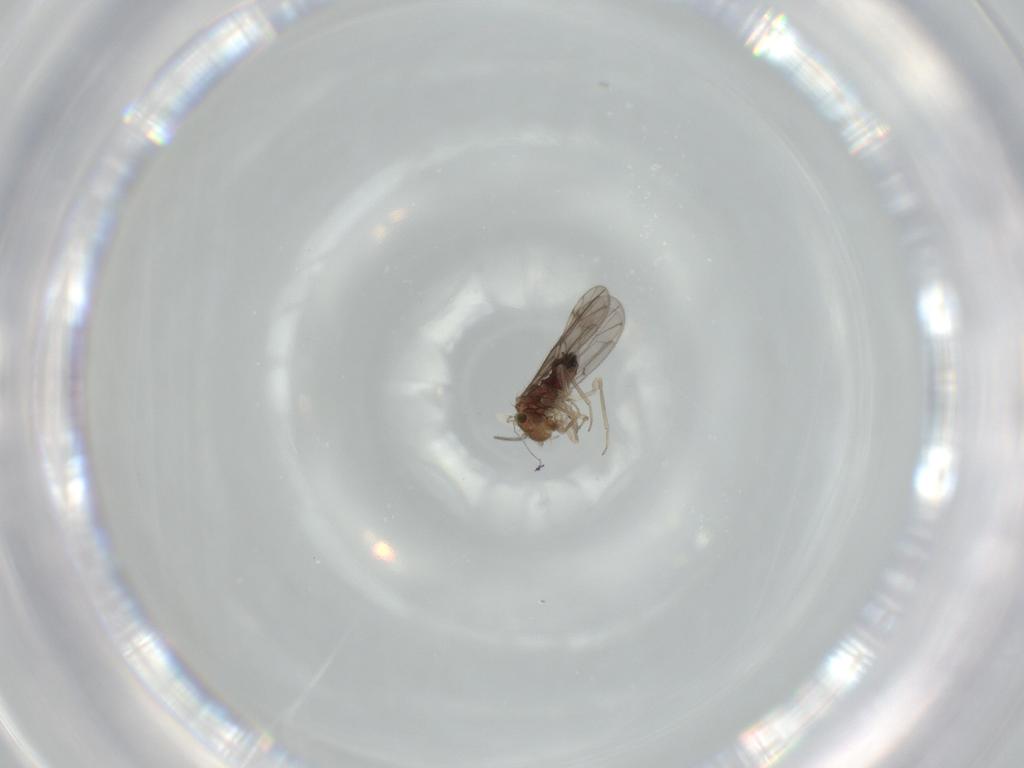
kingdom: Animalia
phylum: Arthropoda
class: Insecta
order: Psocodea
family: Ectopsocidae
